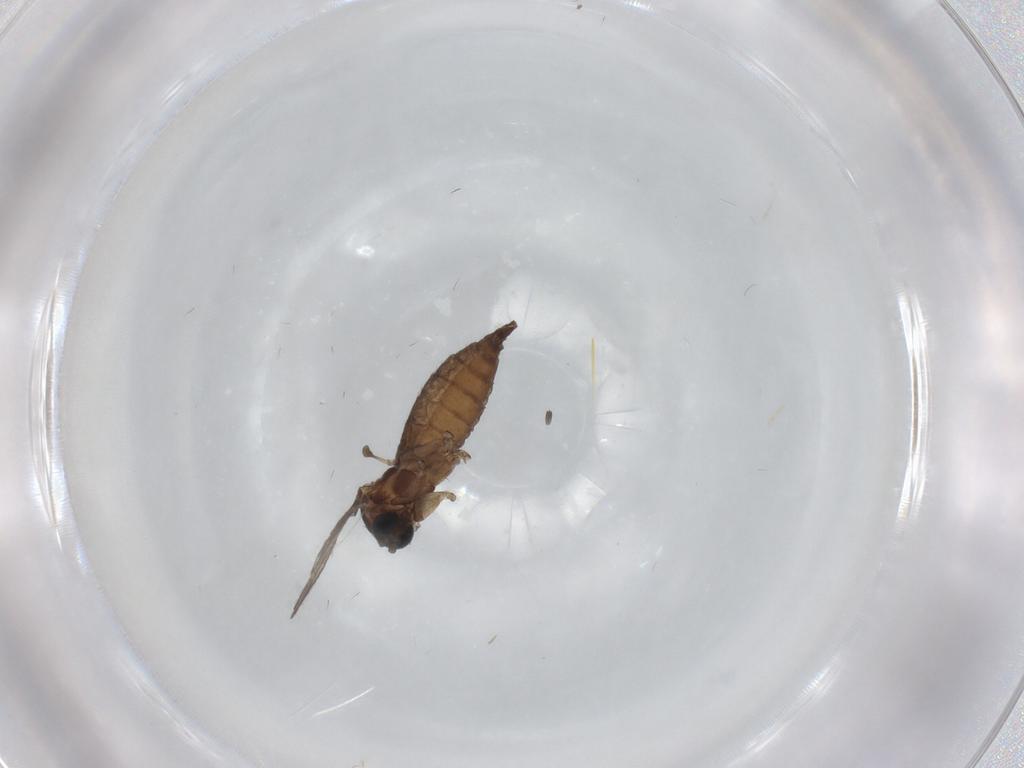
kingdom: Animalia
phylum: Arthropoda
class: Insecta
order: Diptera
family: Sciaridae
